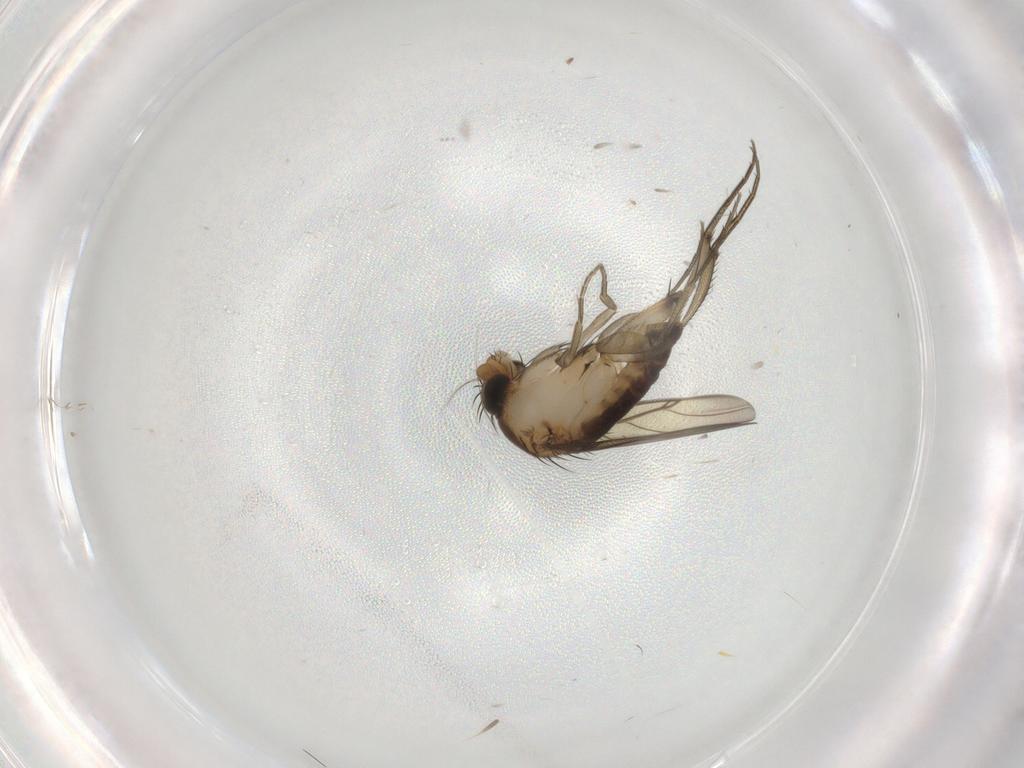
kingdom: Animalia
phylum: Arthropoda
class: Insecta
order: Diptera
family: Phoridae
